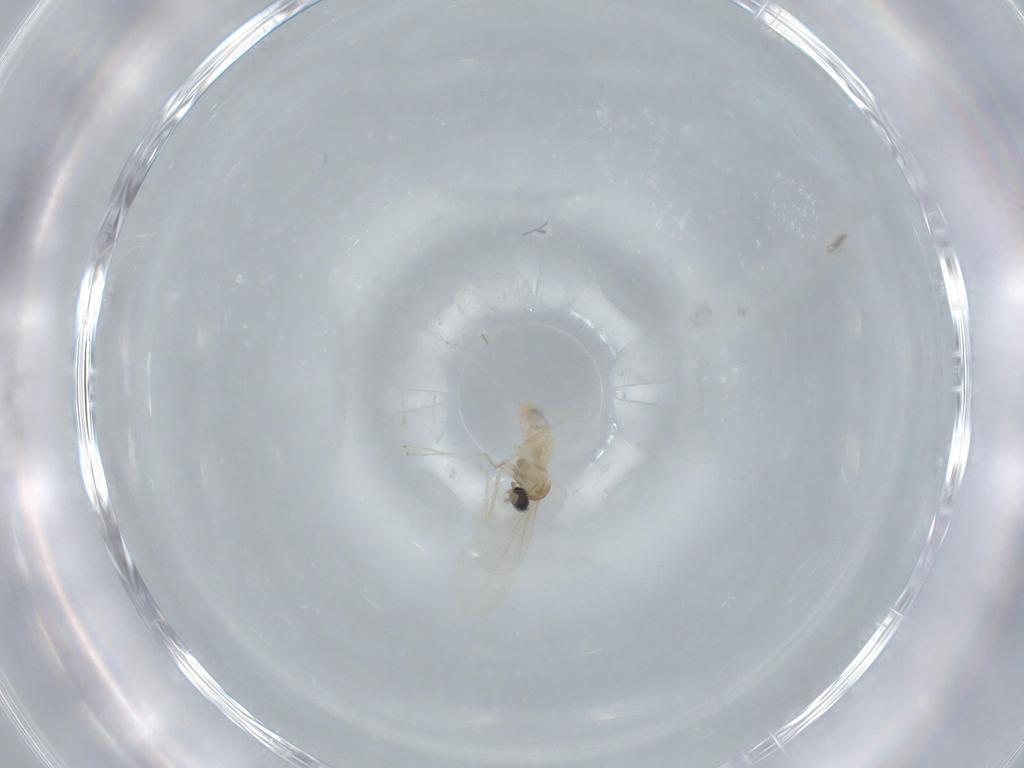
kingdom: Animalia
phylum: Arthropoda
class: Insecta
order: Diptera
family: Cecidomyiidae
